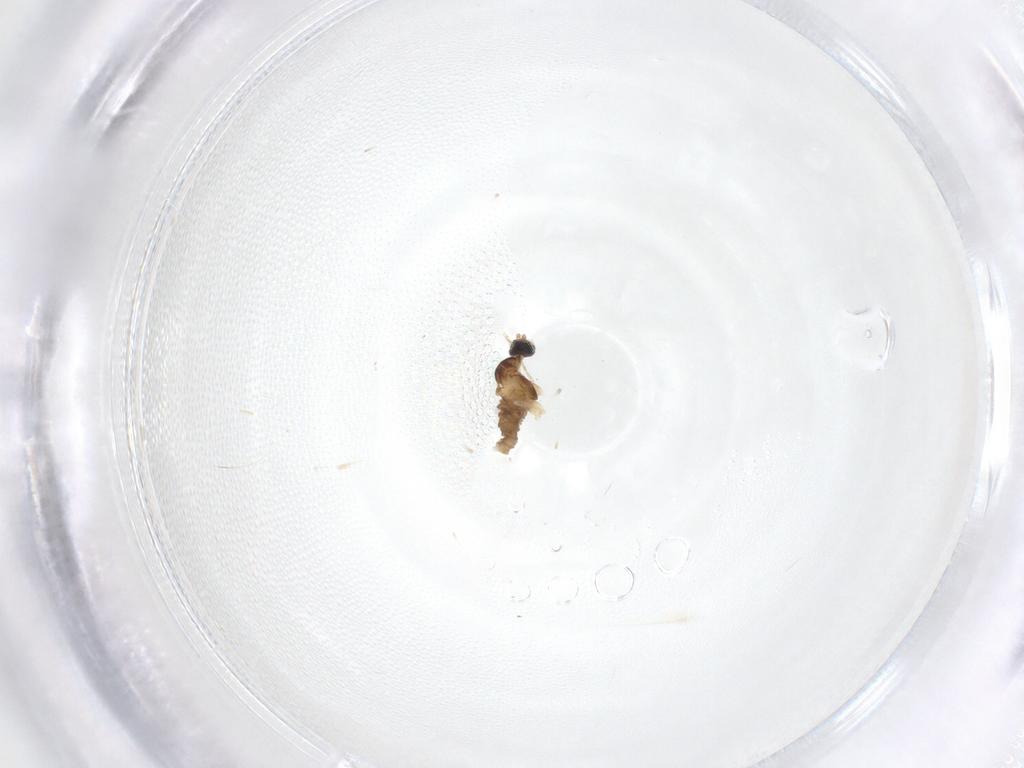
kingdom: Animalia
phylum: Arthropoda
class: Insecta
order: Diptera
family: Cecidomyiidae
